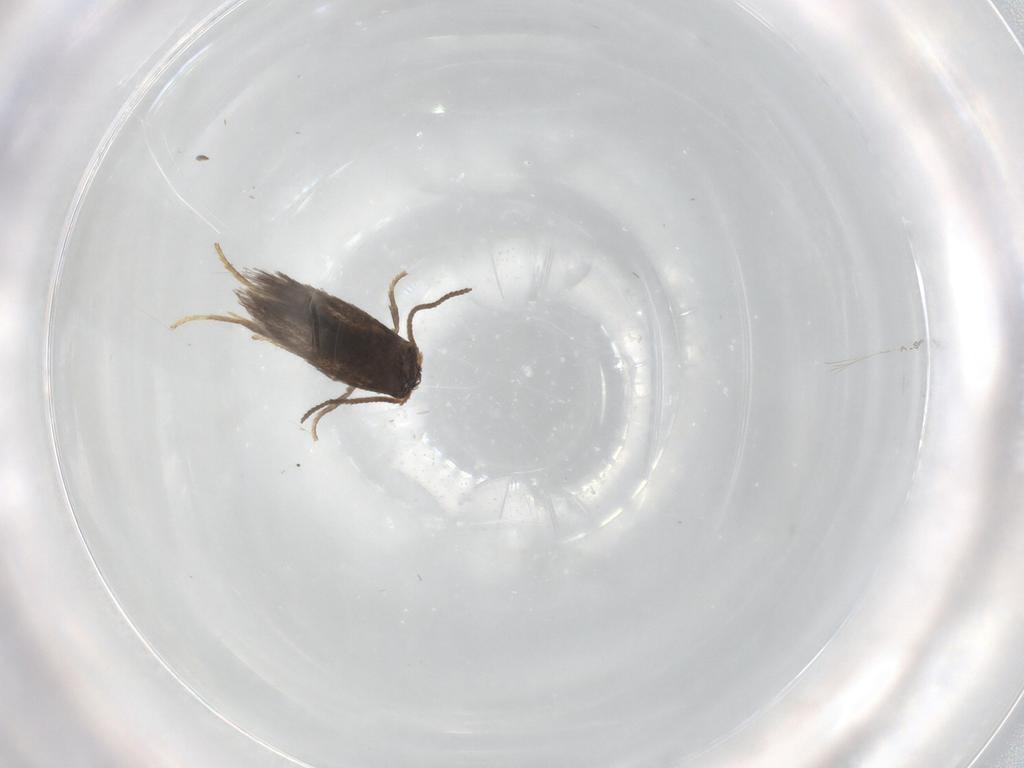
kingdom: Animalia
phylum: Arthropoda
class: Insecta
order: Lepidoptera
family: Nepticulidae
